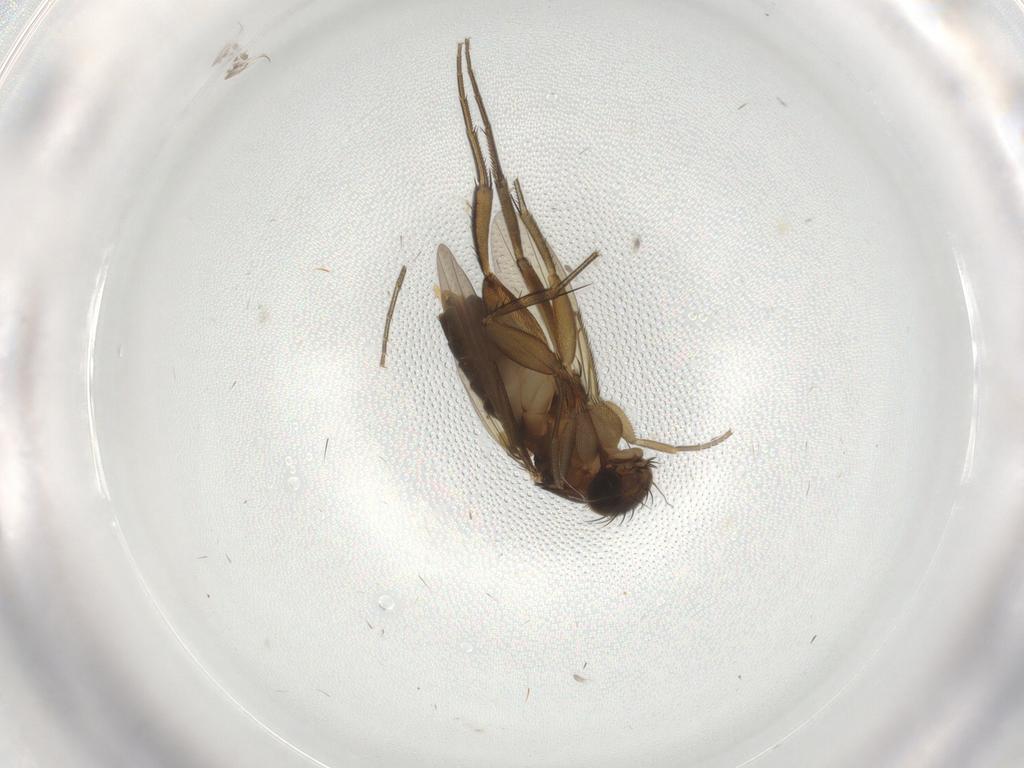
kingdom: Animalia
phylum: Arthropoda
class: Insecta
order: Diptera
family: Phoridae
